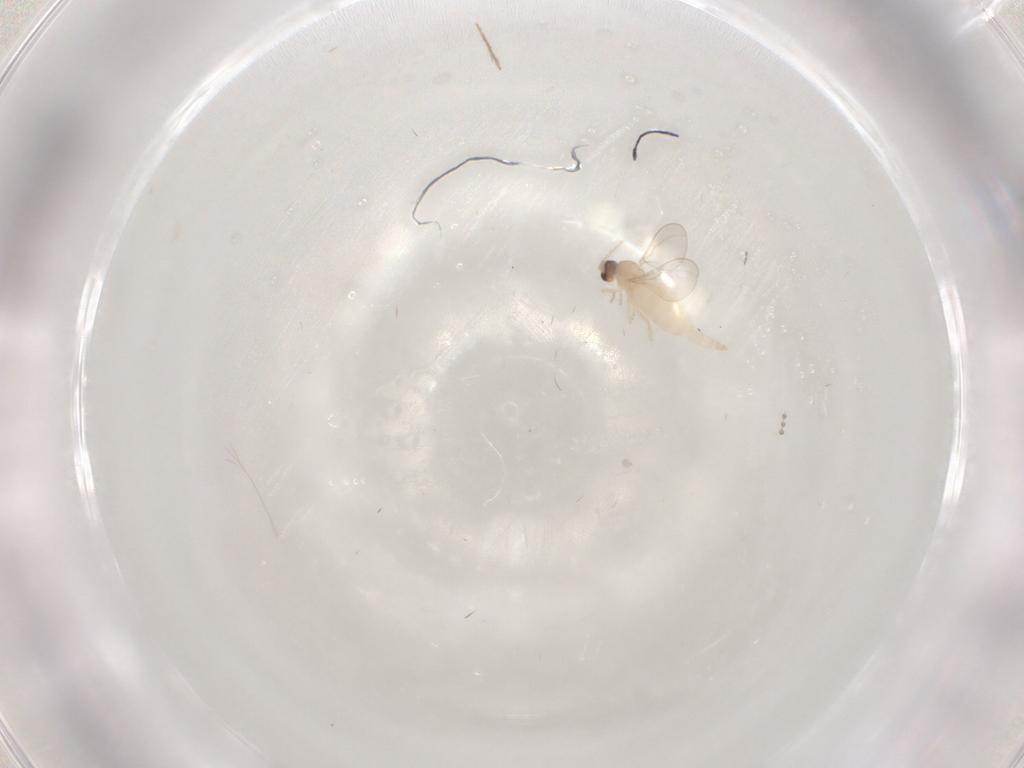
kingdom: Animalia
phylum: Arthropoda
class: Insecta
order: Diptera
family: Cecidomyiidae
